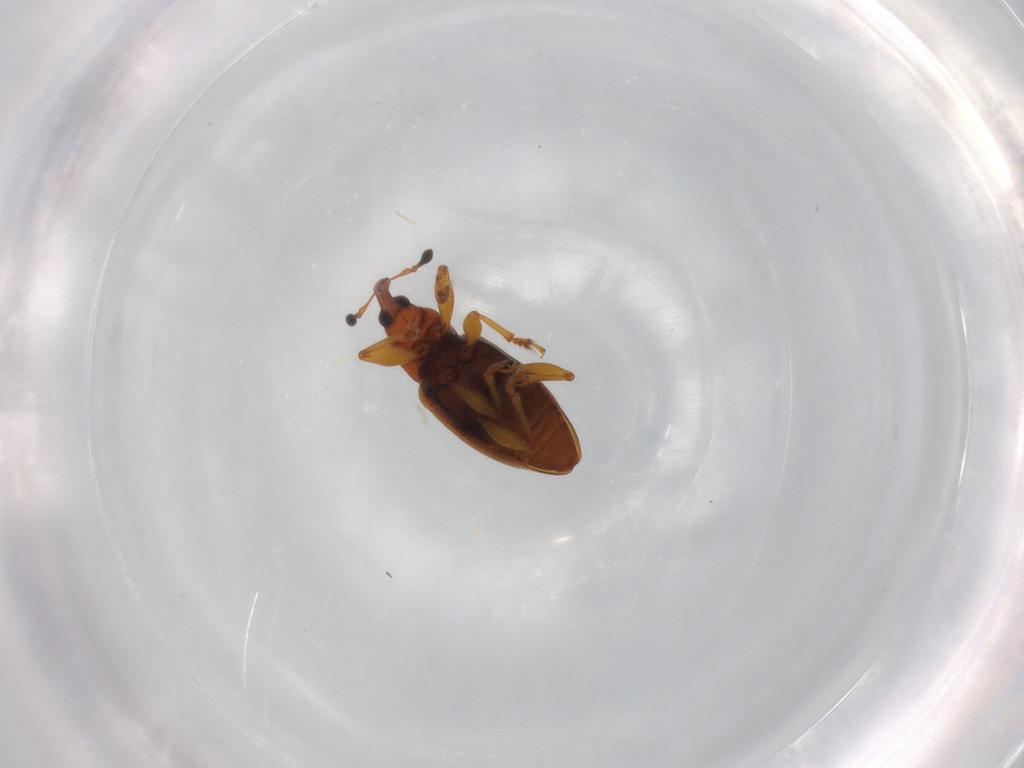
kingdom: Animalia
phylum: Arthropoda
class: Insecta
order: Coleoptera
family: Curculionidae
